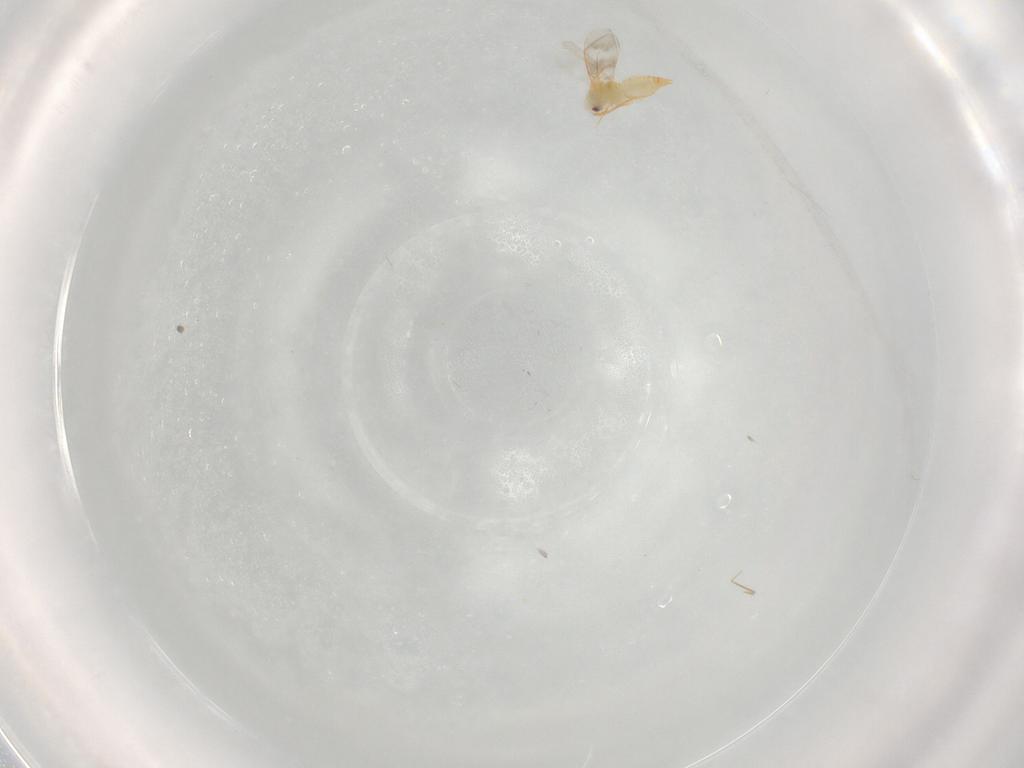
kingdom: Animalia
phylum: Arthropoda
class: Insecta
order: Hemiptera
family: Aleyrodidae
